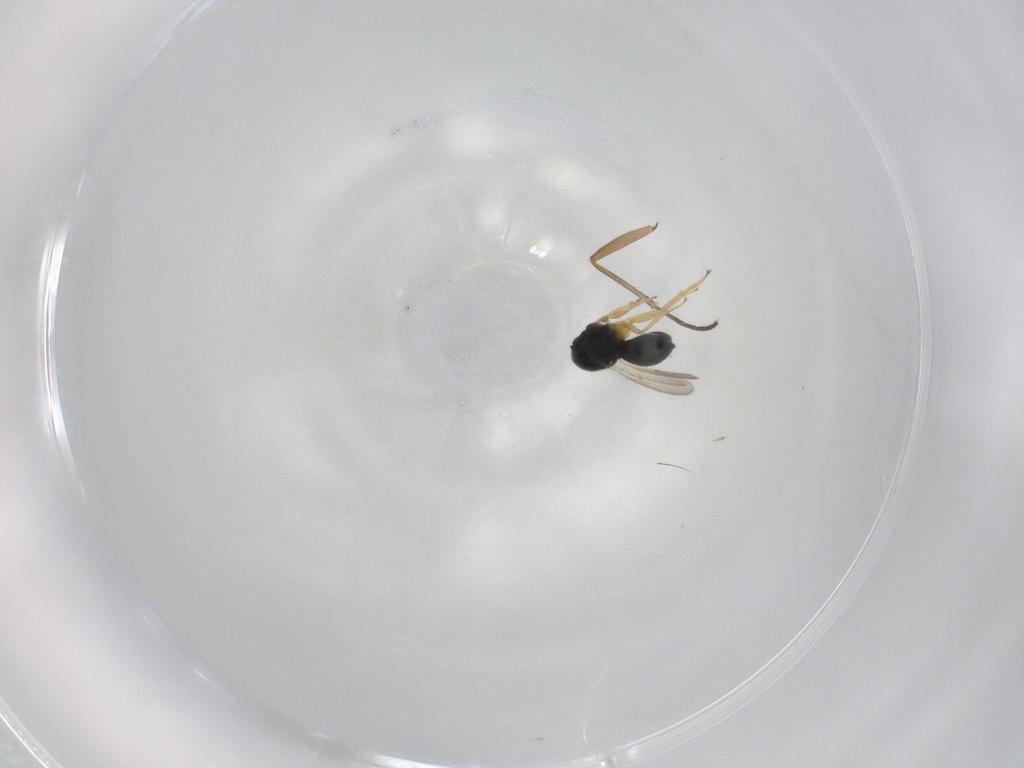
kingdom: Animalia
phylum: Arthropoda
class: Insecta
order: Hymenoptera
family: Scelionidae
